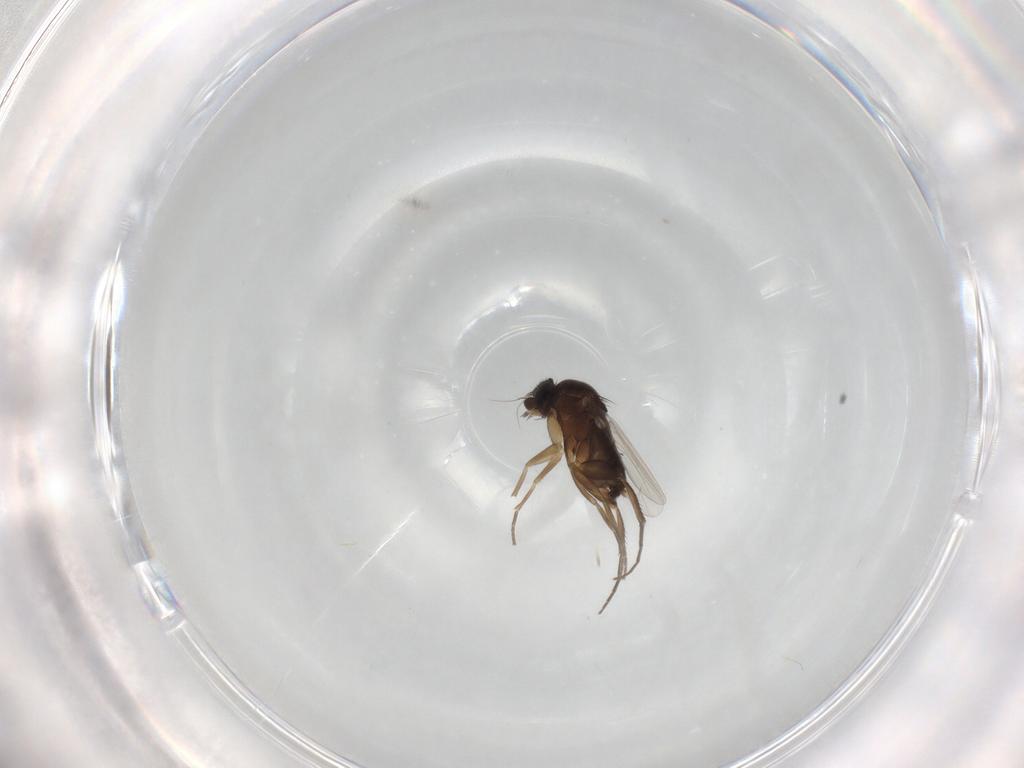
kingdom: Animalia
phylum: Arthropoda
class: Insecta
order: Diptera
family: Phoridae
